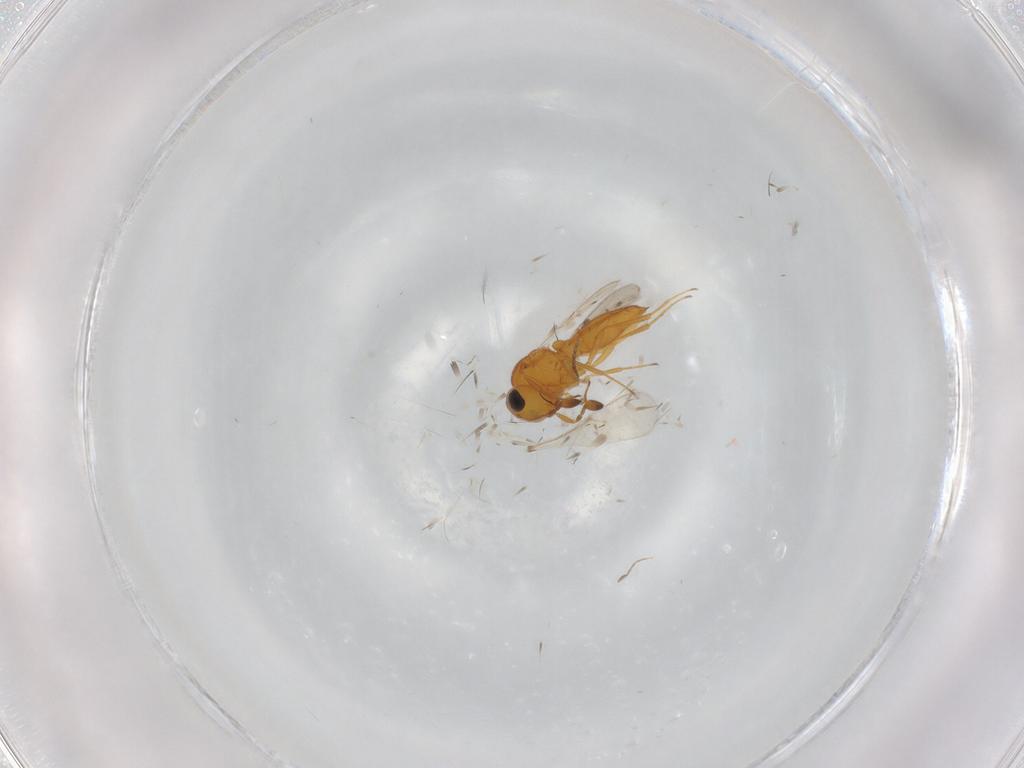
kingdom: Animalia
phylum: Arthropoda
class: Insecta
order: Hymenoptera
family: Scelionidae
